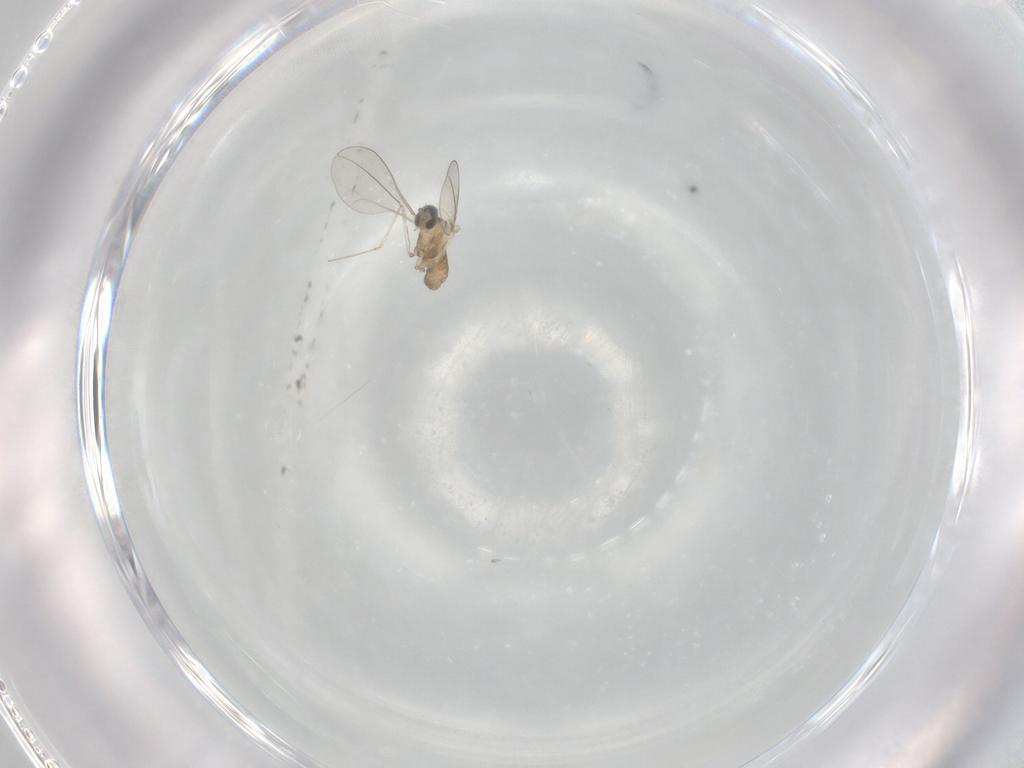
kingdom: Animalia
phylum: Arthropoda
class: Insecta
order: Diptera
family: Cecidomyiidae
